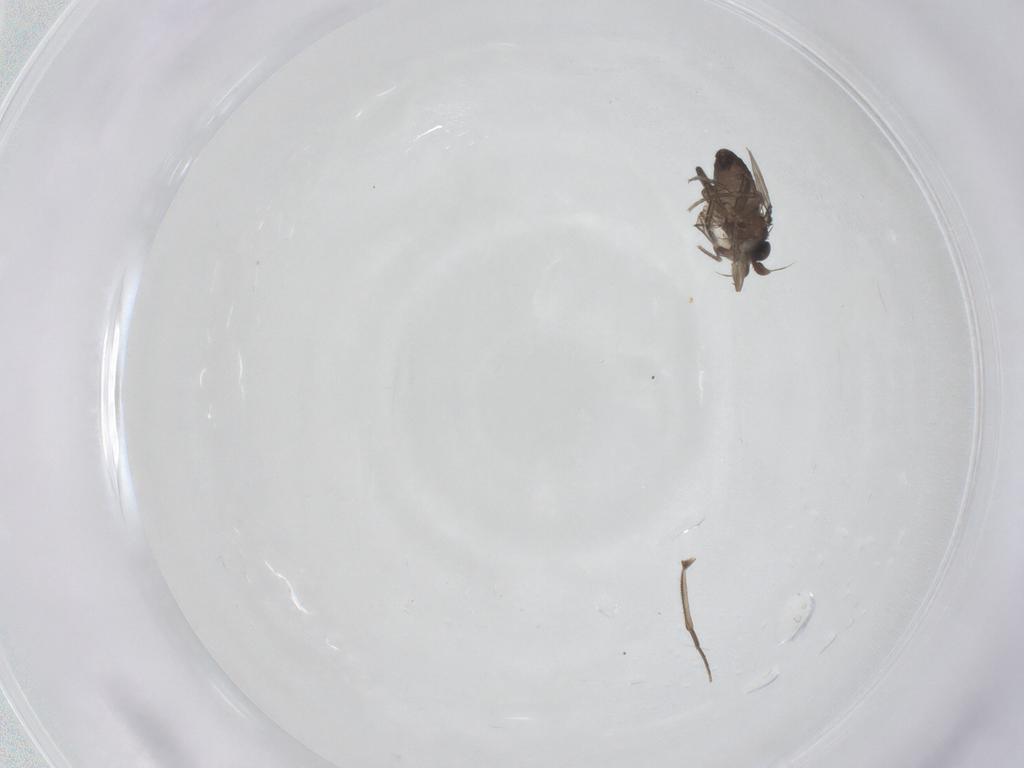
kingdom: Animalia
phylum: Arthropoda
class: Insecta
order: Diptera
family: Phoridae
